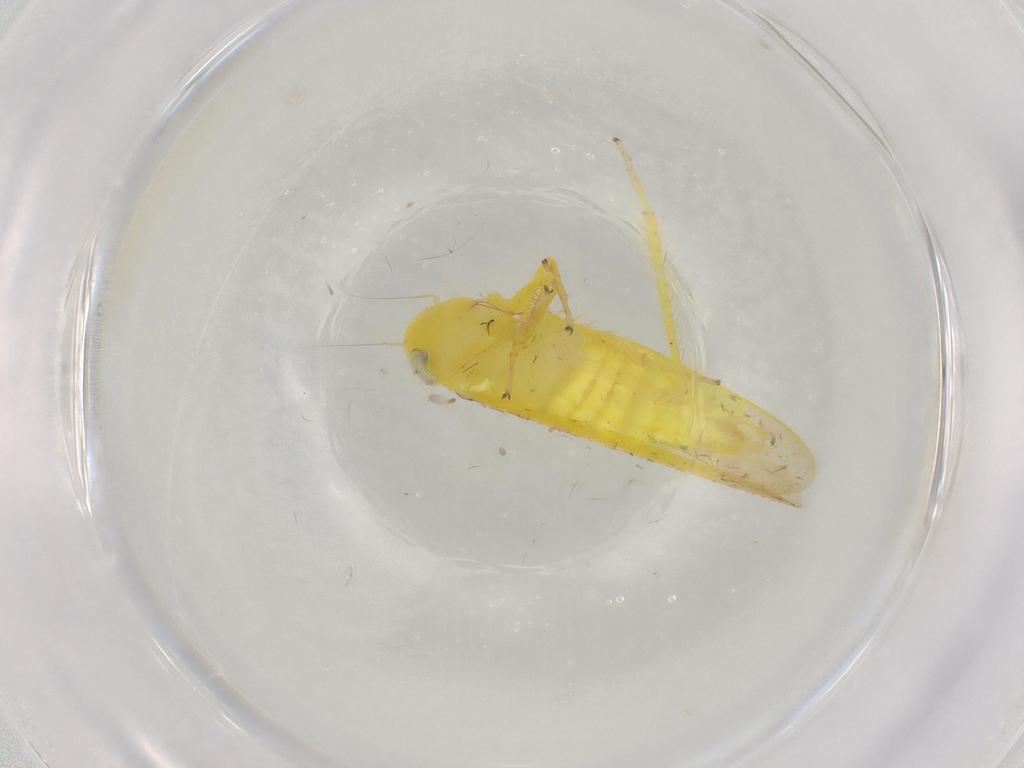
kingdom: Animalia
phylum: Arthropoda
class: Insecta
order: Hemiptera
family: Cicadellidae
